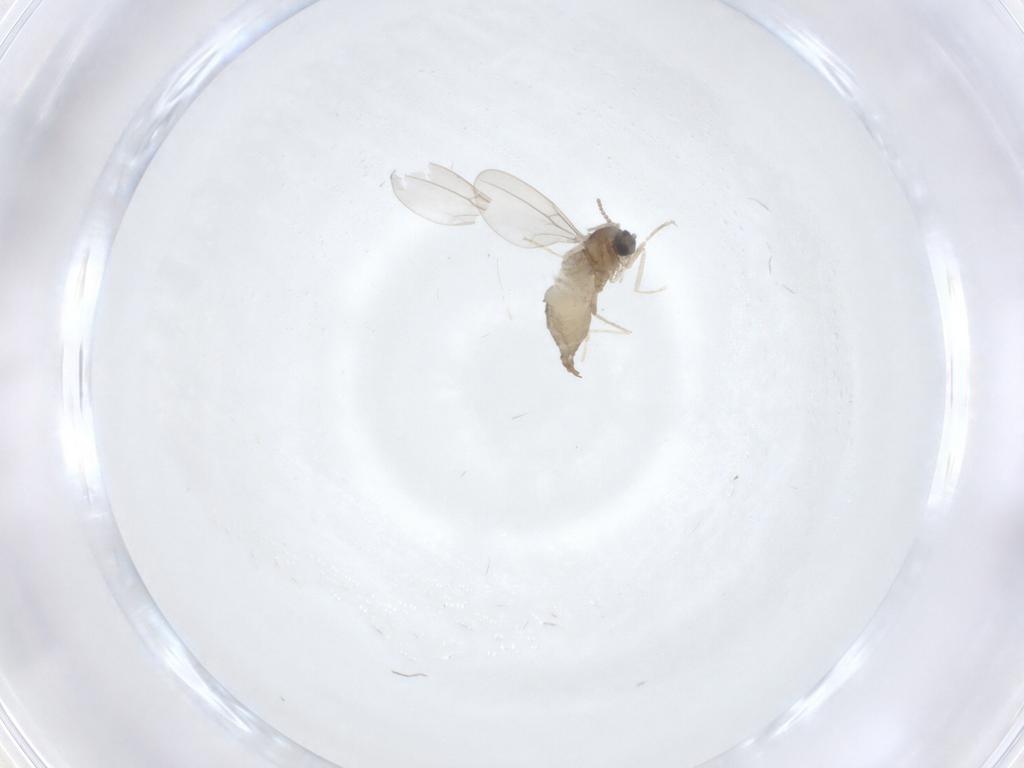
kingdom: Animalia
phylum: Arthropoda
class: Insecta
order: Diptera
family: Cecidomyiidae
